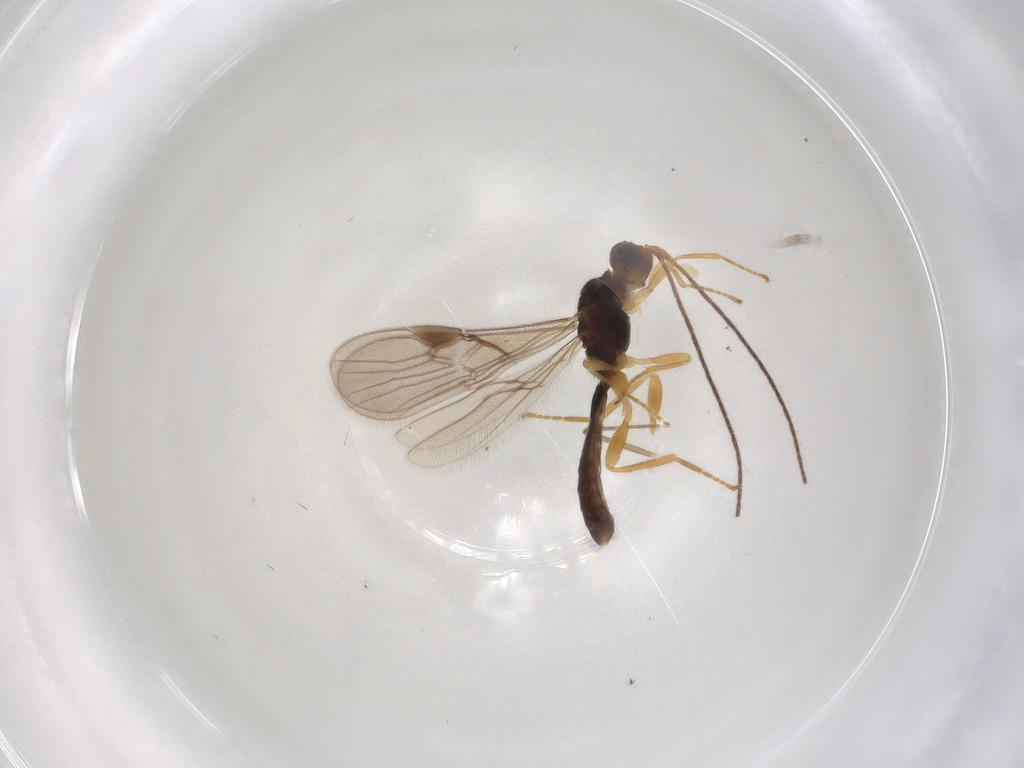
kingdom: Animalia
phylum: Arthropoda
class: Insecta
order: Hymenoptera
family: Braconidae
